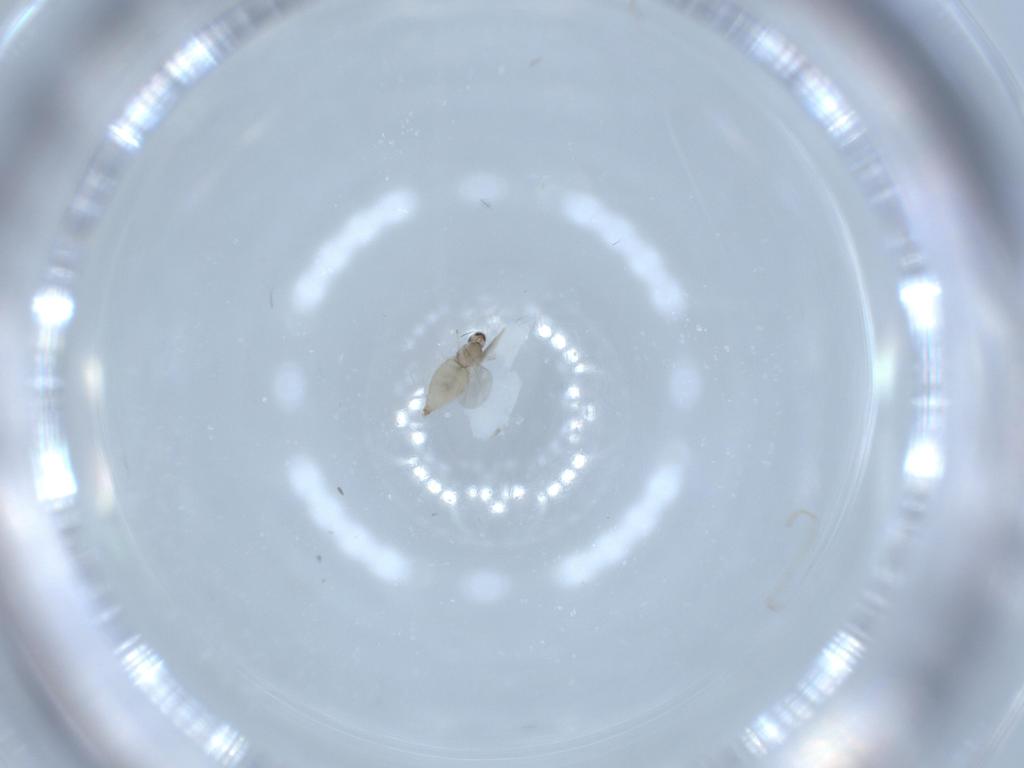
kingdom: Animalia
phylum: Arthropoda
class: Insecta
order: Diptera
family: Cecidomyiidae
